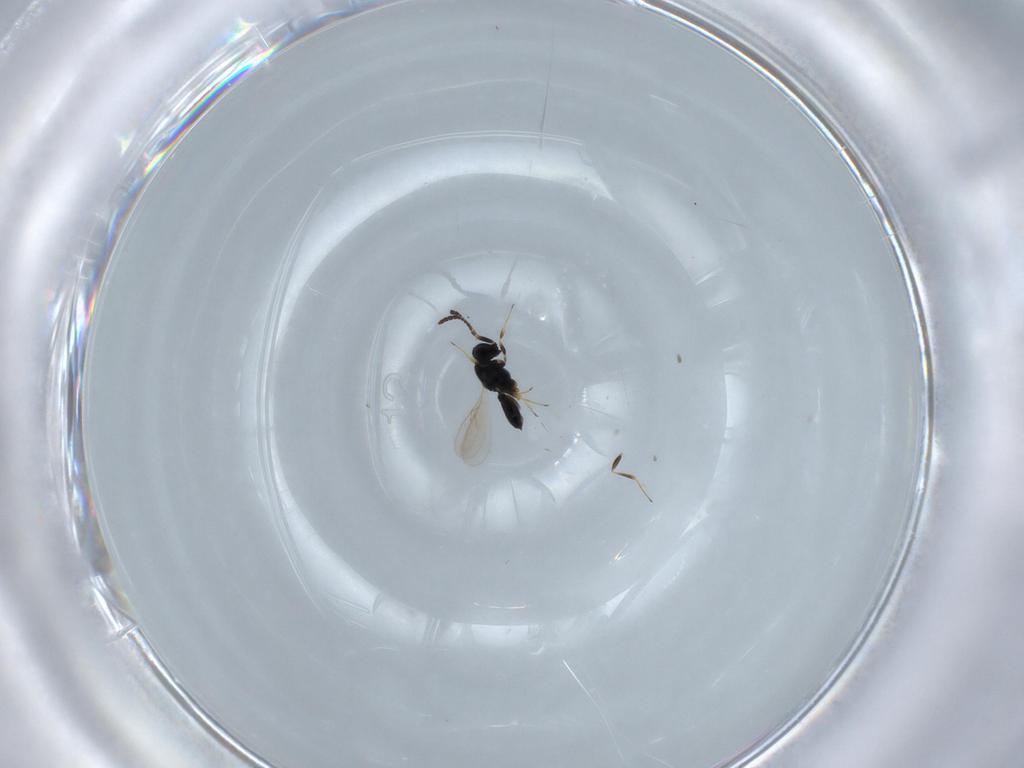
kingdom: Animalia
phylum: Arthropoda
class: Insecta
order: Hymenoptera
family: Scelionidae
